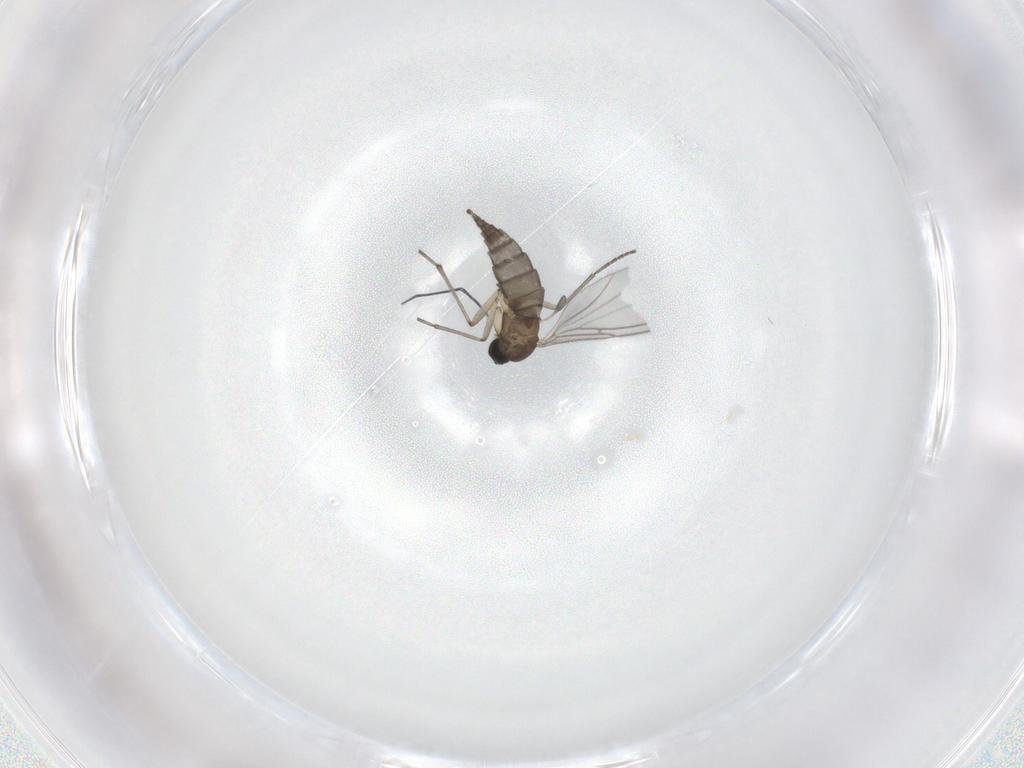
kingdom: Animalia
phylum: Arthropoda
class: Insecta
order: Diptera
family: Sciaridae
